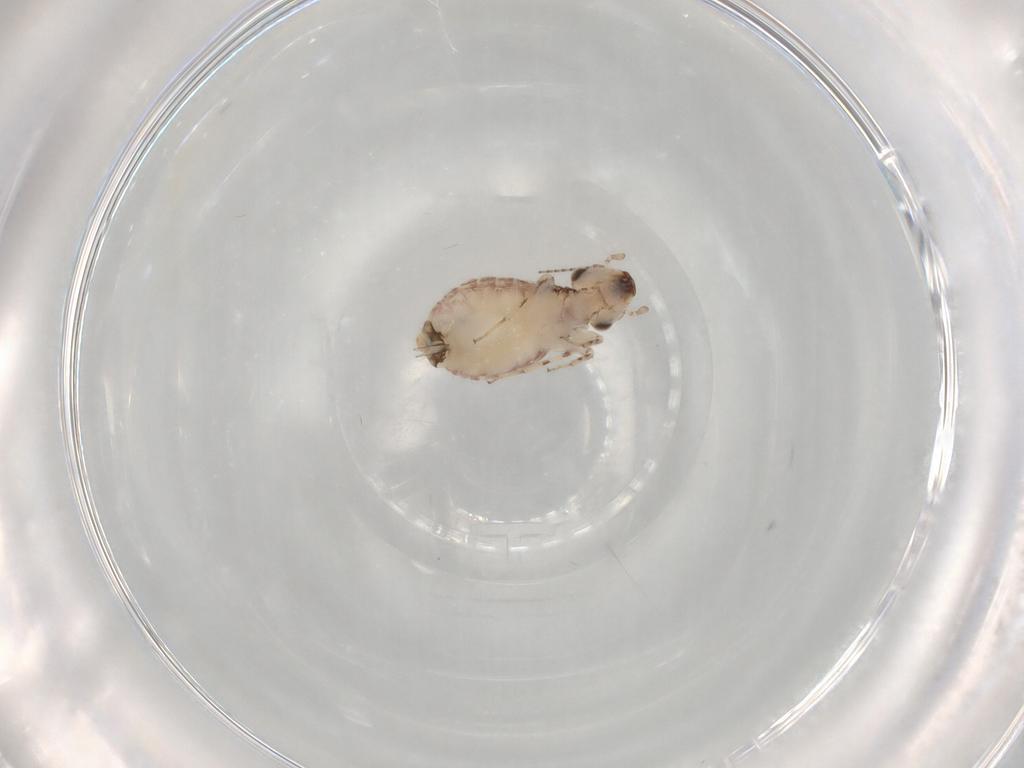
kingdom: Animalia
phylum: Arthropoda
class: Insecta
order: Psocodea
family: Trogiidae
